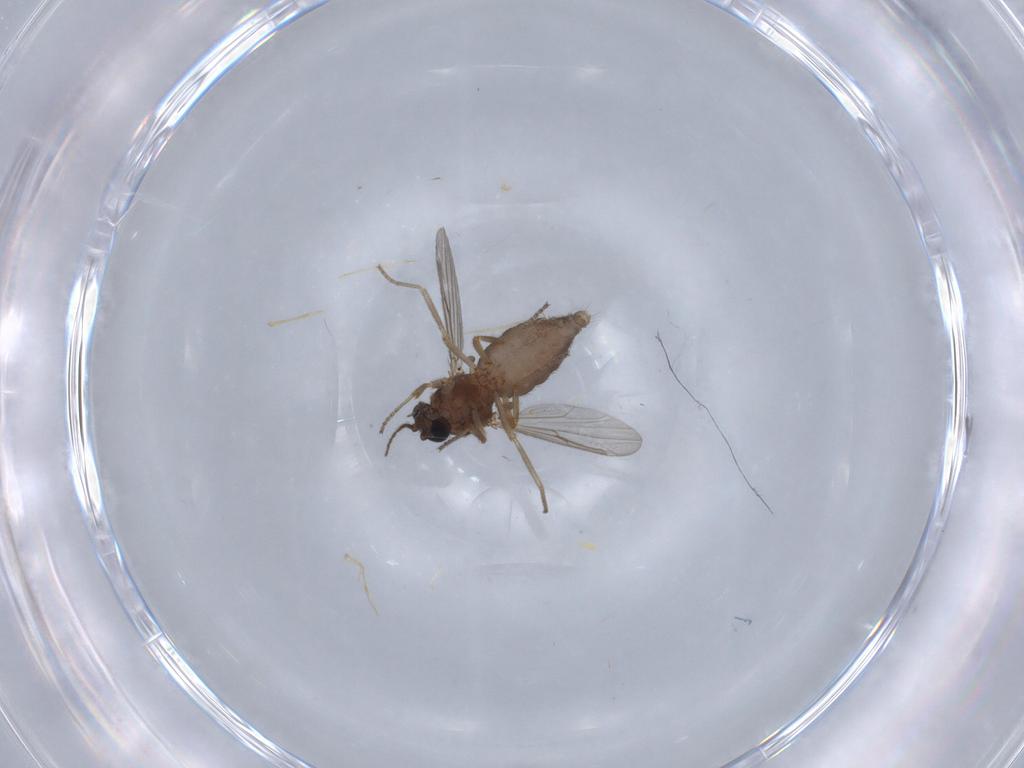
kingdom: Animalia
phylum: Arthropoda
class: Insecta
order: Diptera
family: Ceratopogonidae
